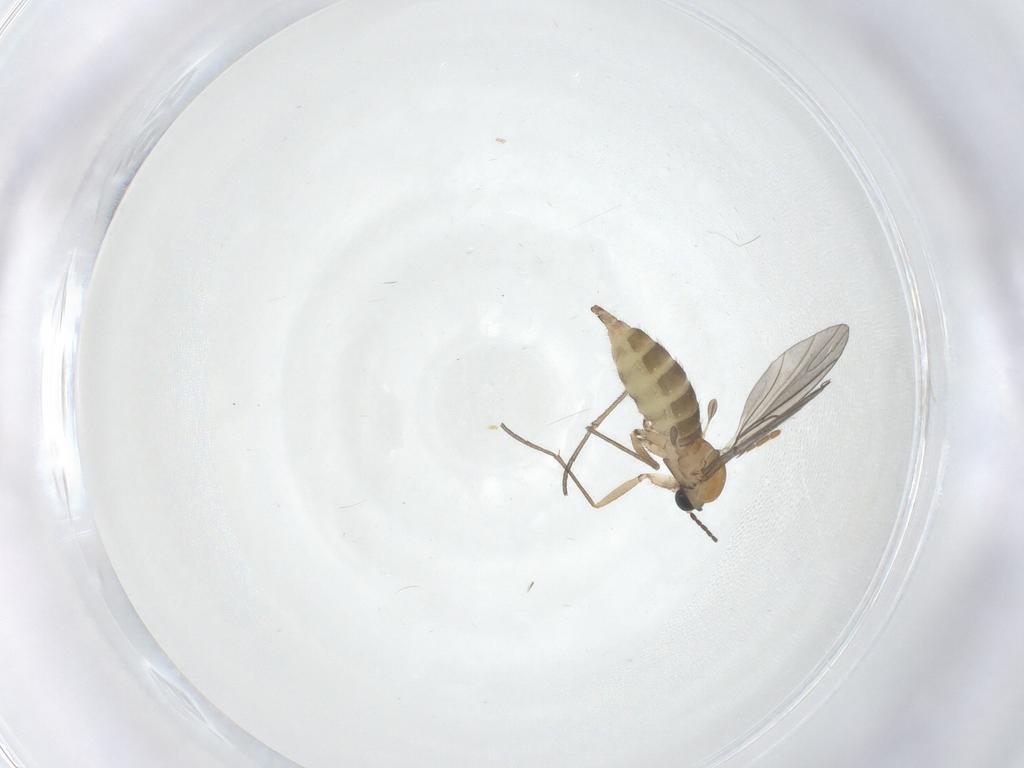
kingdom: Animalia
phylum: Arthropoda
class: Insecta
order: Diptera
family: Sciaridae
